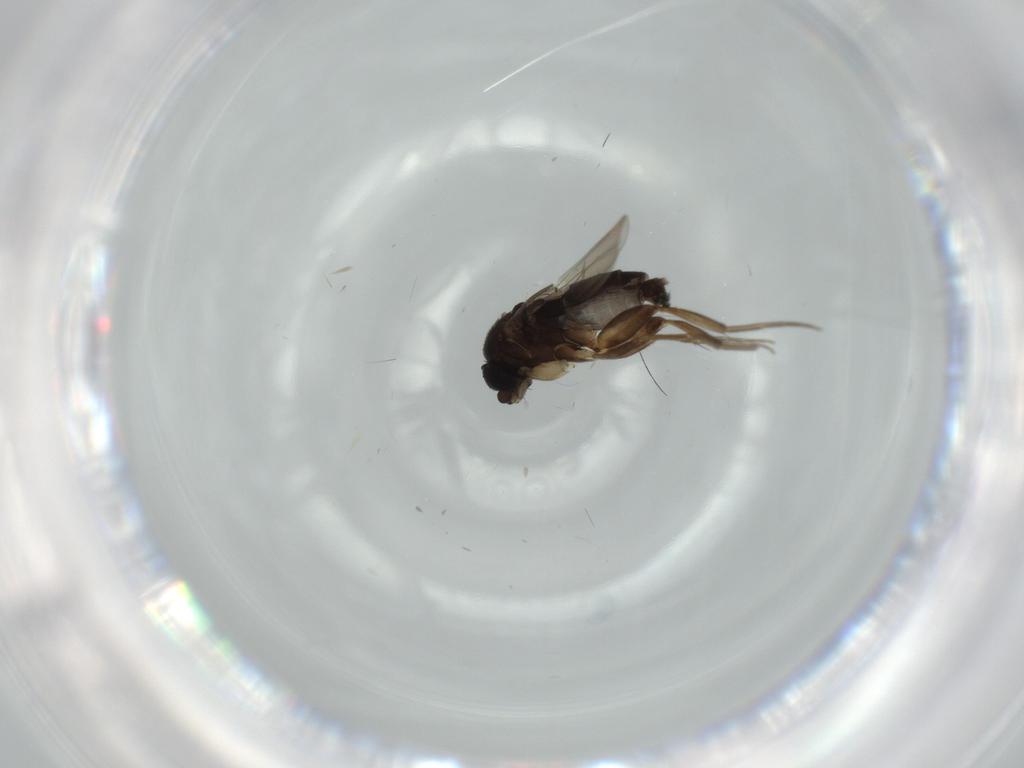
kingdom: Animalia
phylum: Arthropoda
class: Insecta
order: Diptera
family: Phoridae
